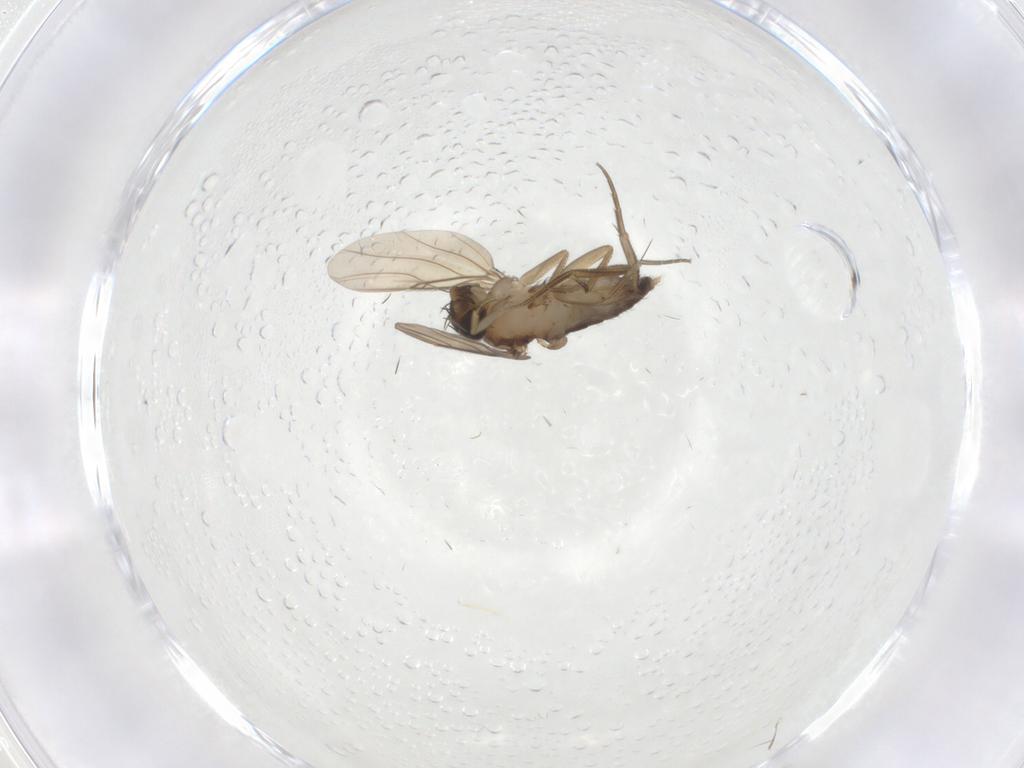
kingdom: Animalia
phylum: Arthropoda
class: Insecta
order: Diptera
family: Phoridae
